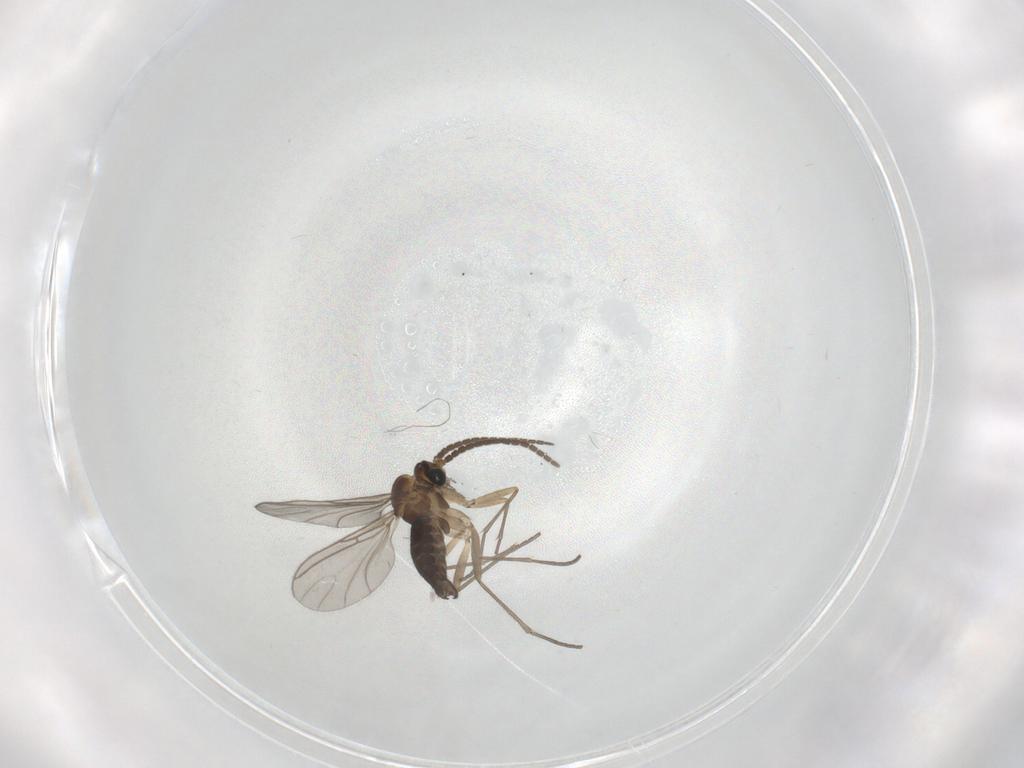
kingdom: Animalia
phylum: Arthropoda
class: Insecta
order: Diptera
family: Sciaridae
